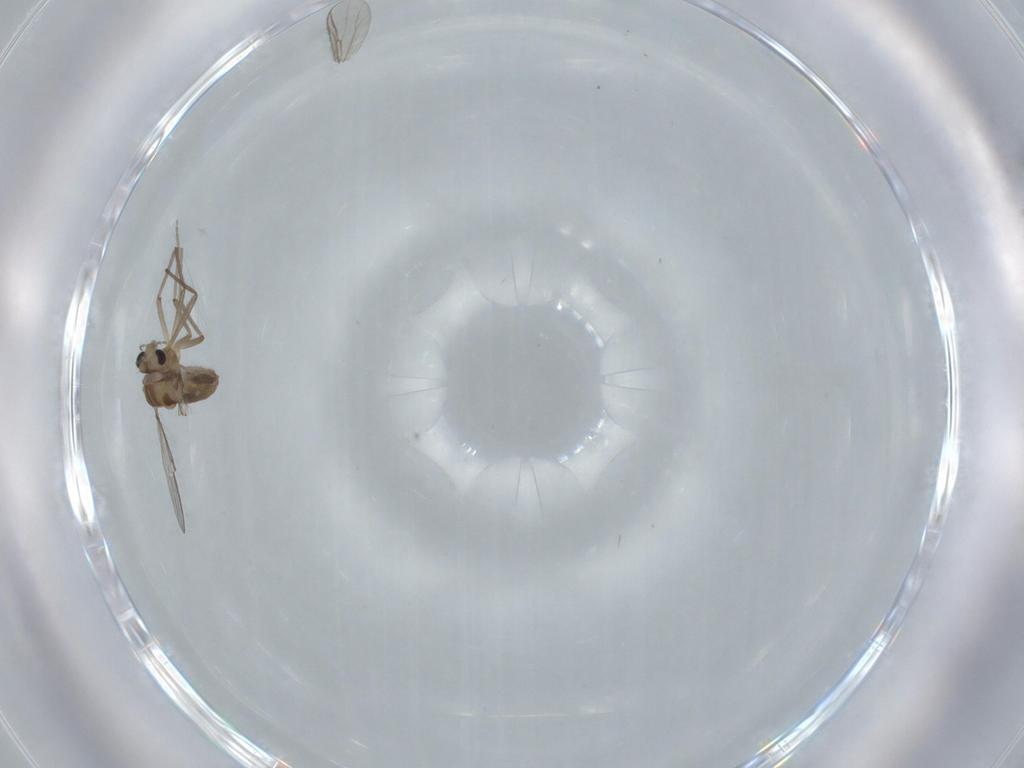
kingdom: Animalia
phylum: Arthropoda
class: Insecta
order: Diptera
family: Chironomidae
